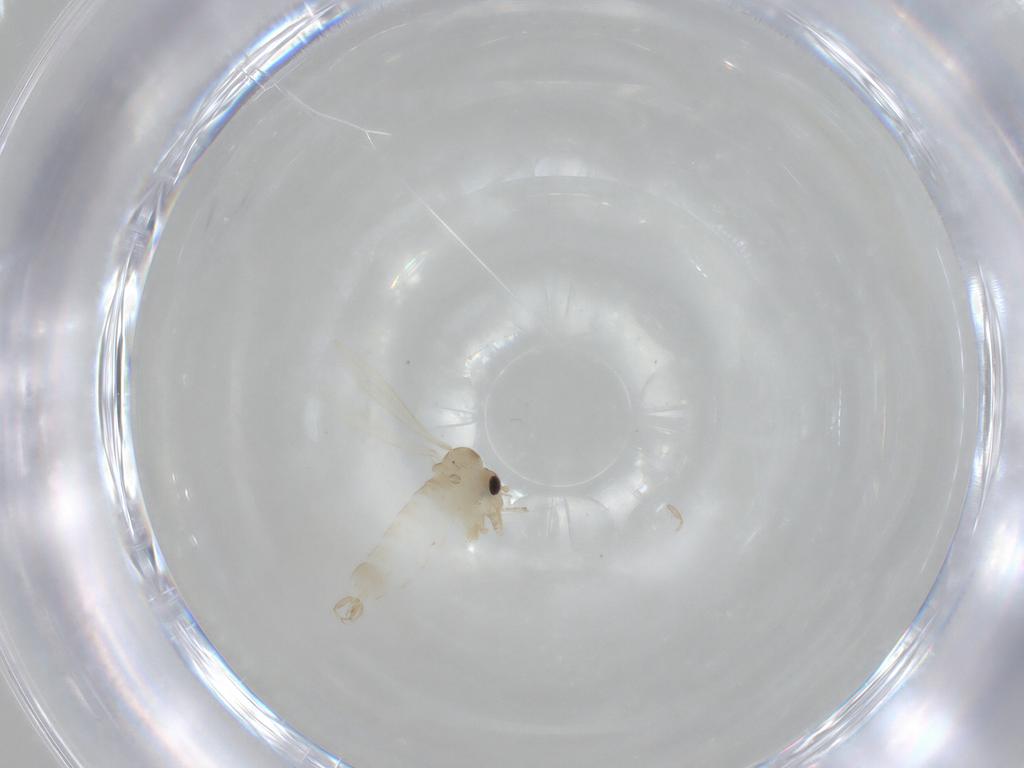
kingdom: Animalia
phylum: Arthropoda
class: Insecta
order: Diptera
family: Psychodidae
